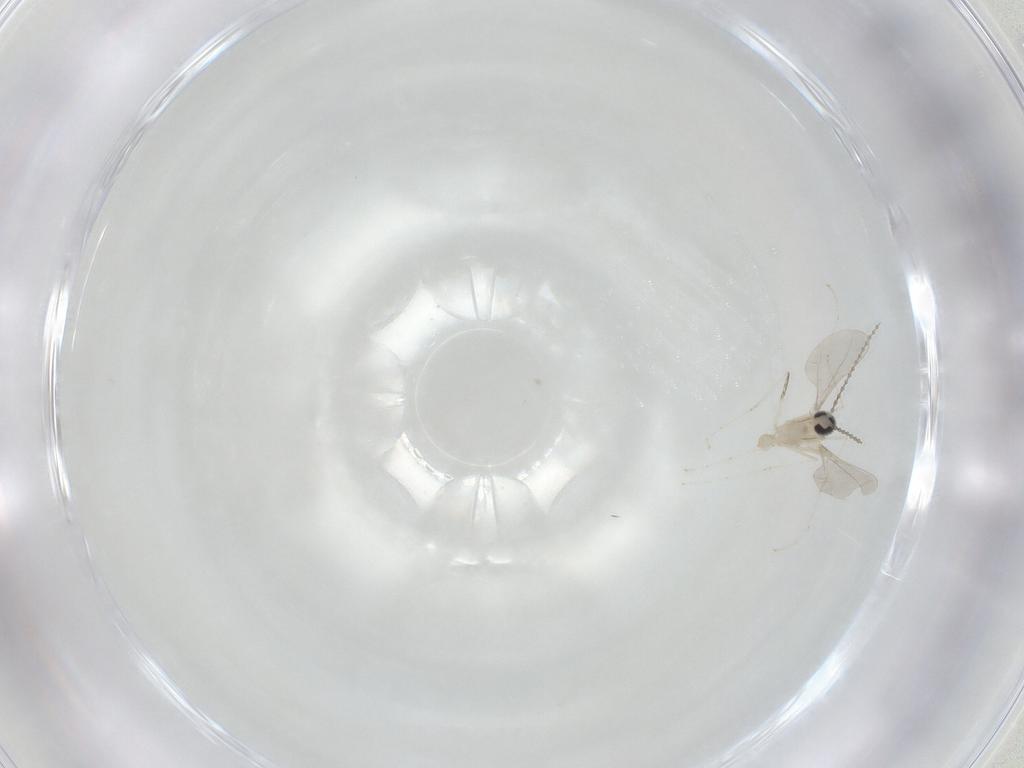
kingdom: Animalia
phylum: Arthropoda
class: Insecta
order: Diptera
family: Cecidomyiidae
